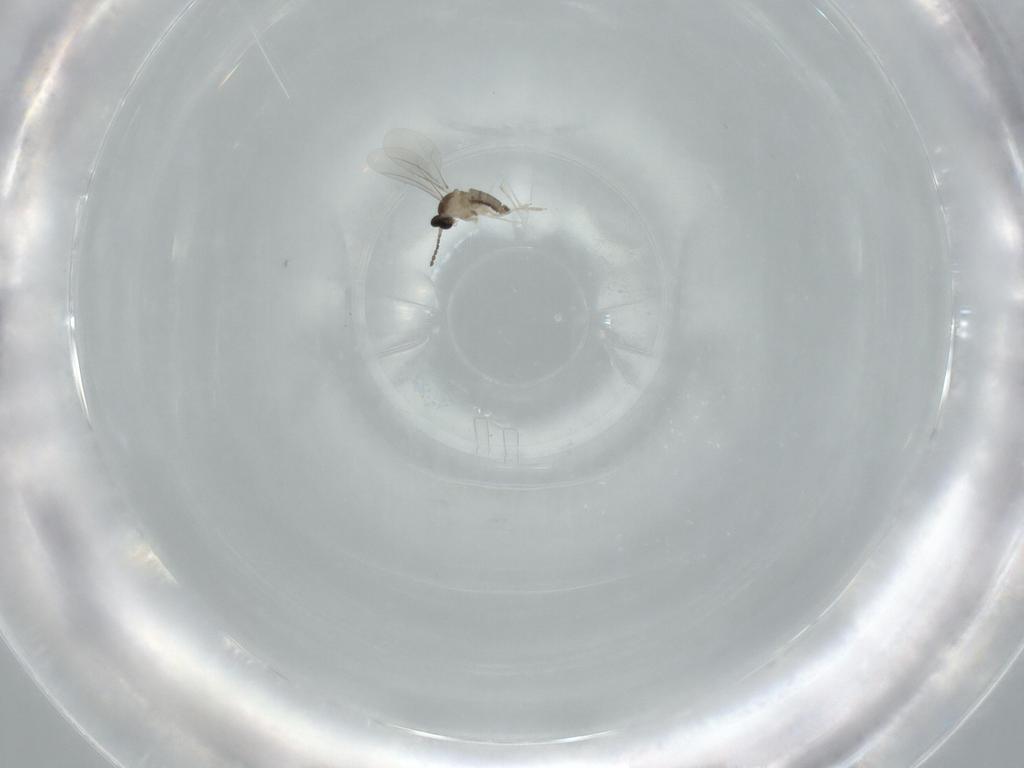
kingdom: Animalia
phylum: Arthropoda
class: Insecta
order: Diptera
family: Cecidomyiidae
